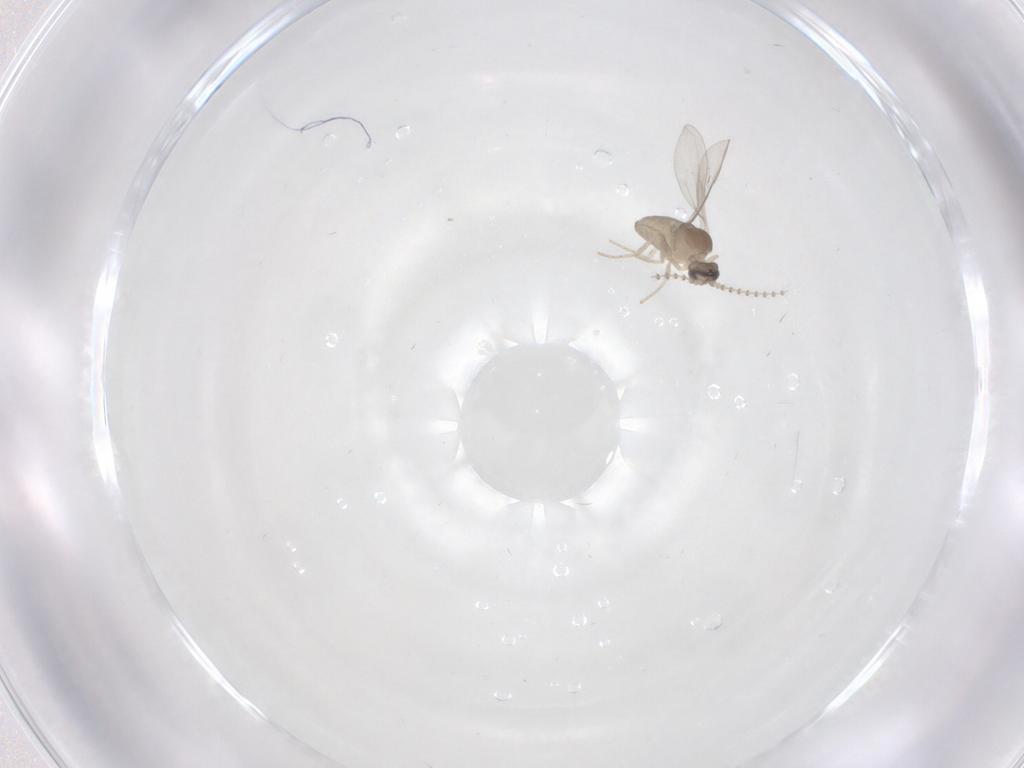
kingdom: Animalia
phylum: Arthropoda
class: Insecta
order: Diptera
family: Cecidomyiidae
